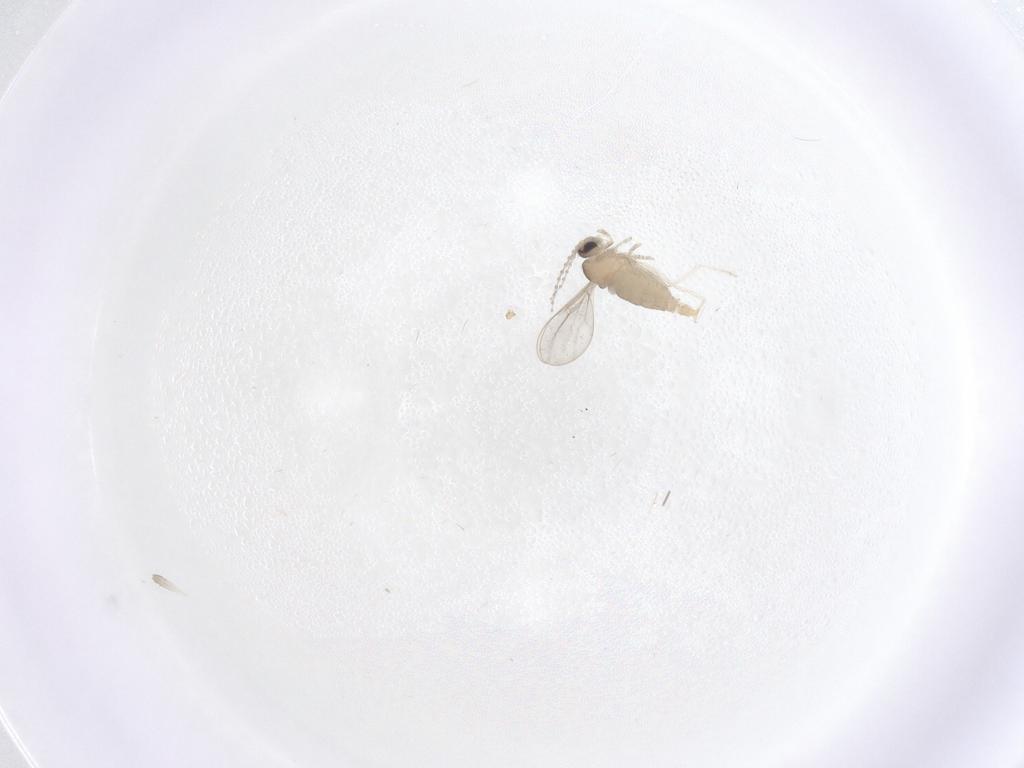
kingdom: Animalia
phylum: Arthropoda
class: Insecta
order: Diptera
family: Cecidomyiidae
